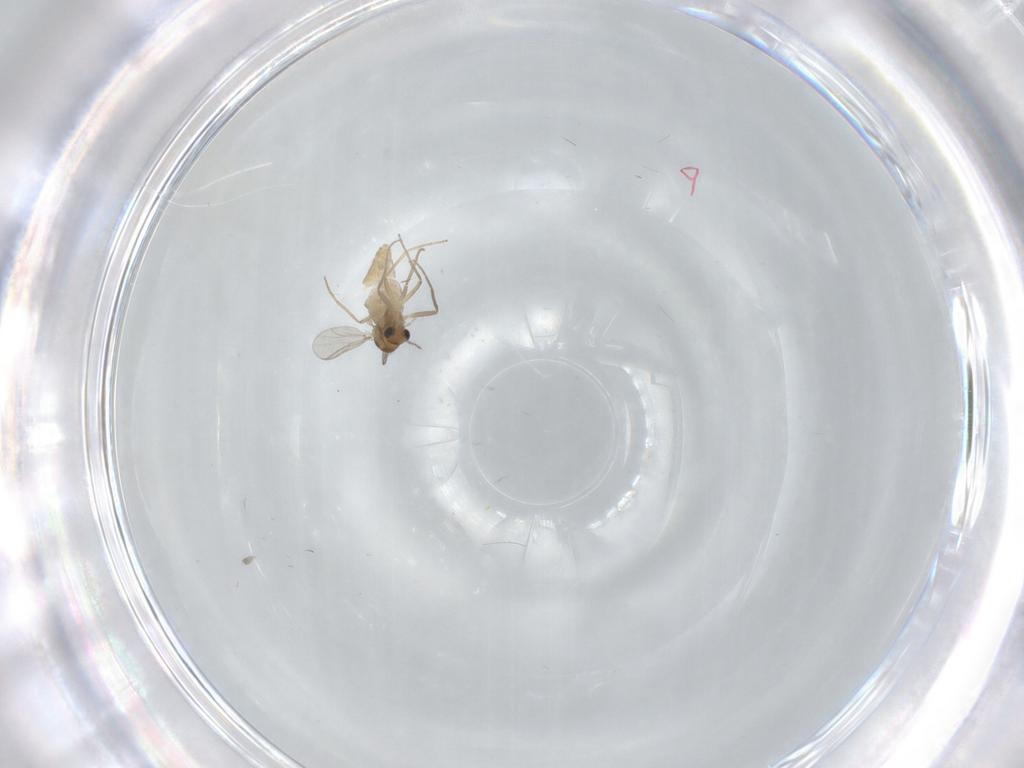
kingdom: Animalia
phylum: Arthropoda
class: Insecta
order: Diptera
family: Chironomidae
